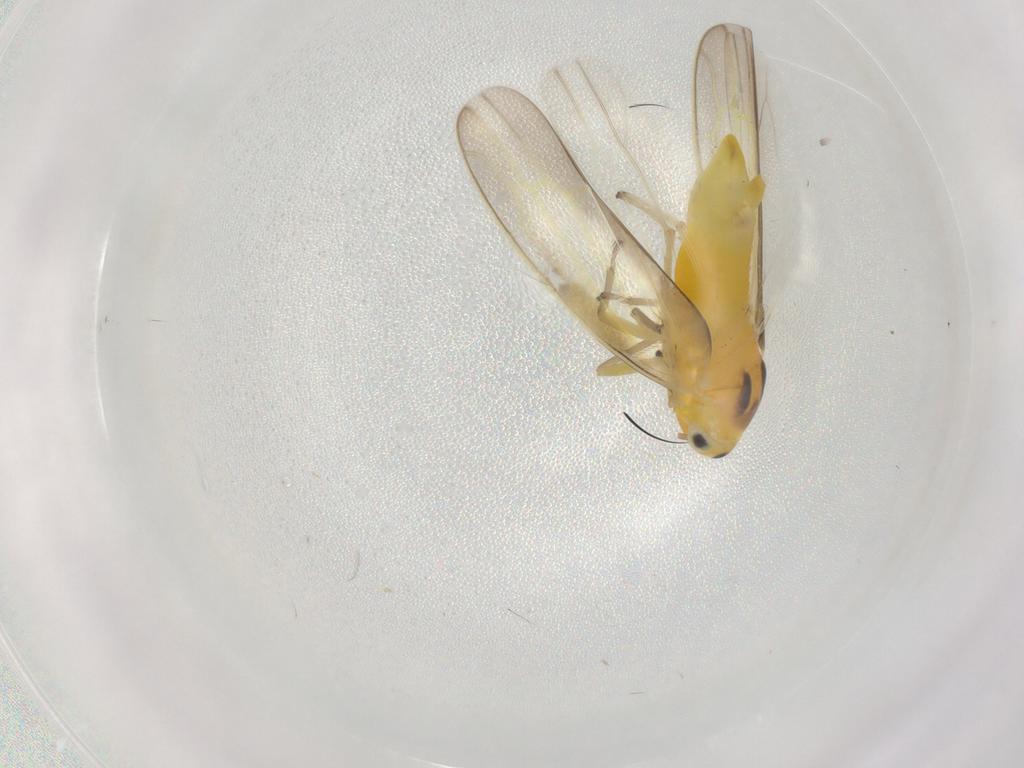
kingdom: Animalia
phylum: Arthropoda
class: Insecta
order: Hemiptera
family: Cicadellidae
